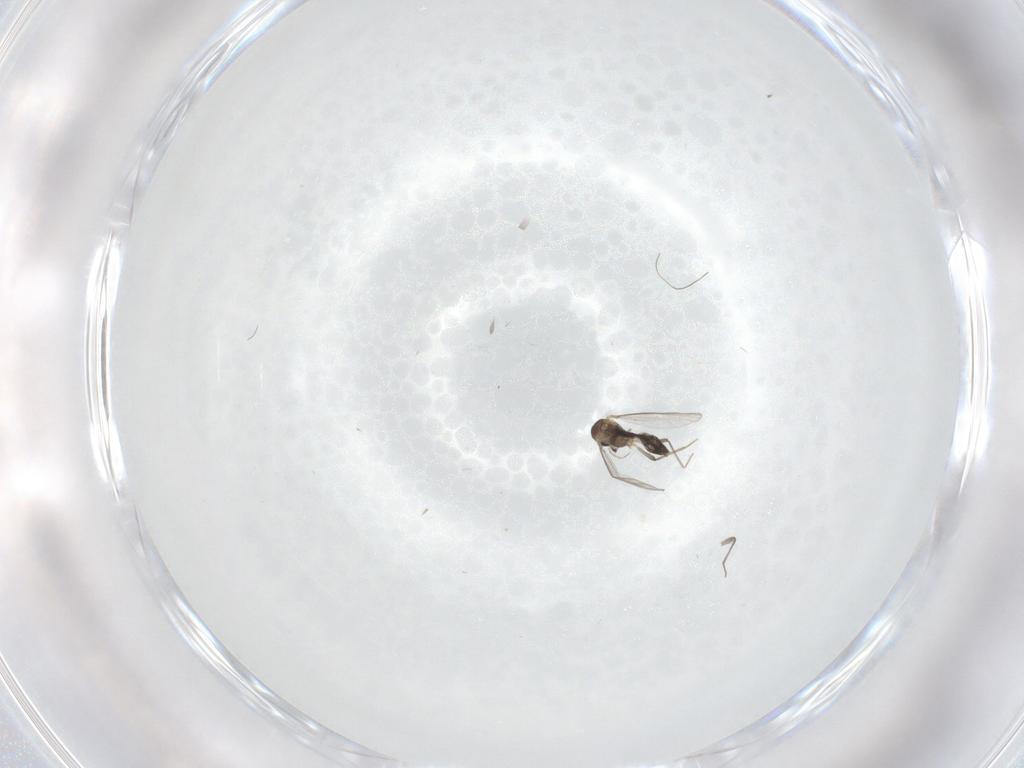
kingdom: Animalia
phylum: Arthropoda
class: Insecta
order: Diptera
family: Chironomidae
